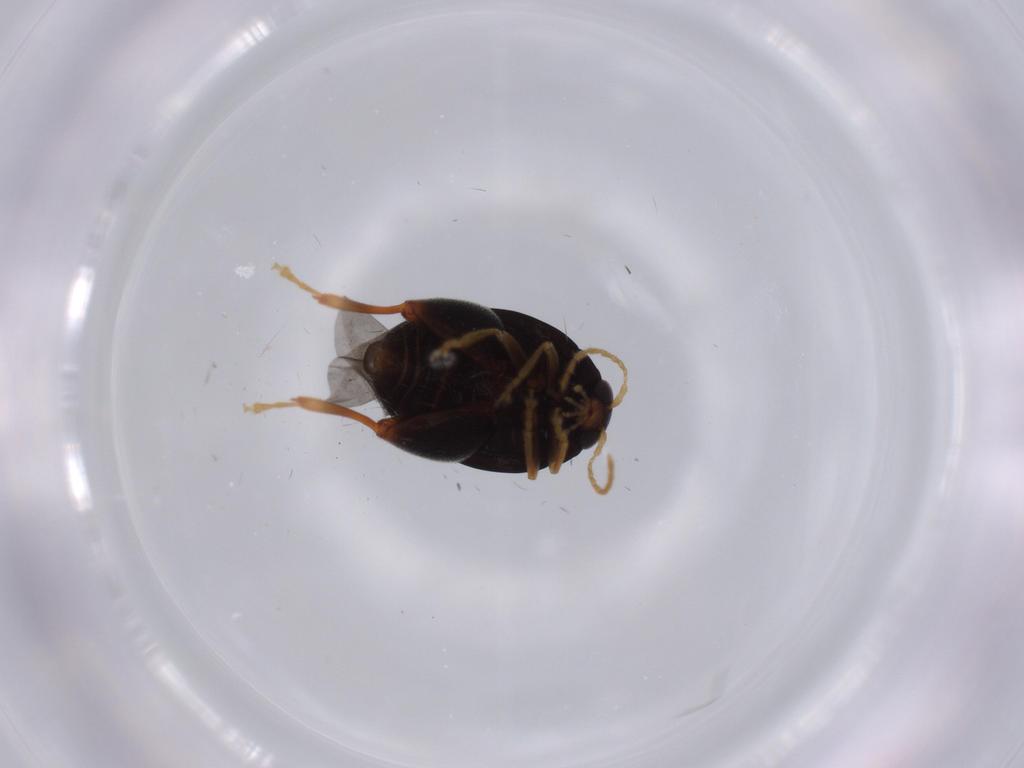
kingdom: Animalia
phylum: Arthropoda
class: Insecta
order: Coleoptera
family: Chrysomelidae
